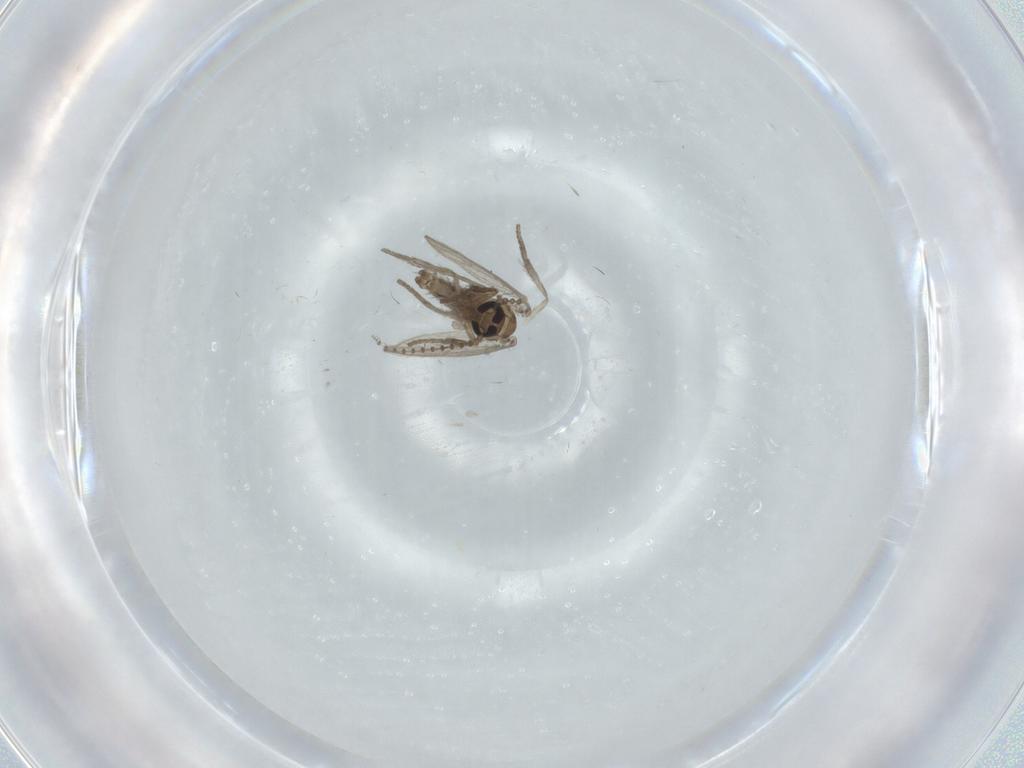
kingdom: Animalia
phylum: Arthropoda
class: Insecta
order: Diptera
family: Psychodidae
